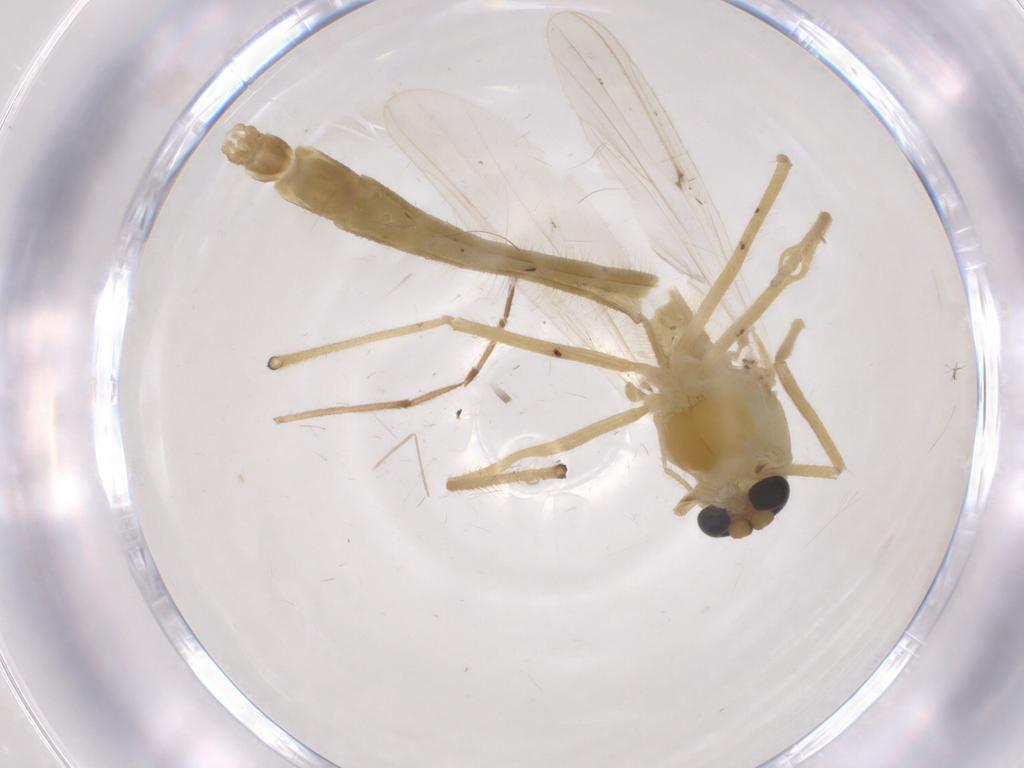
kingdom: Animalia
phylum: Arthropoda
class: Insecta
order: Diptera
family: Chironomidae
